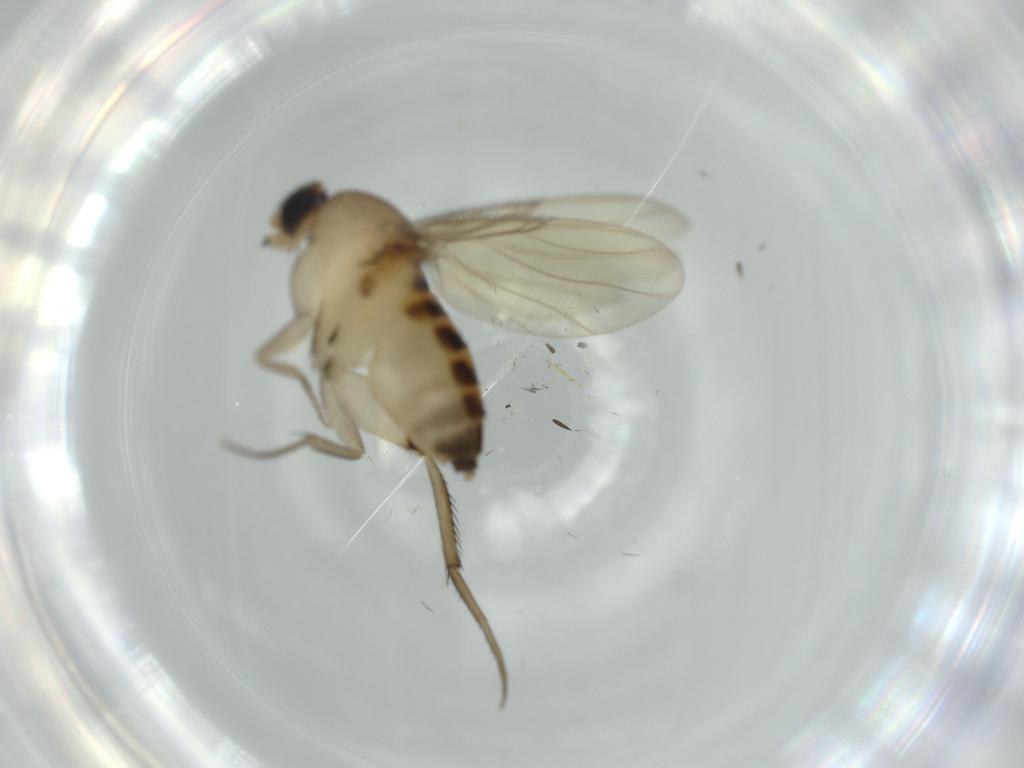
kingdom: Animalia
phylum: Arthropoda
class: Insecta
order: Diptera
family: Phoridae
